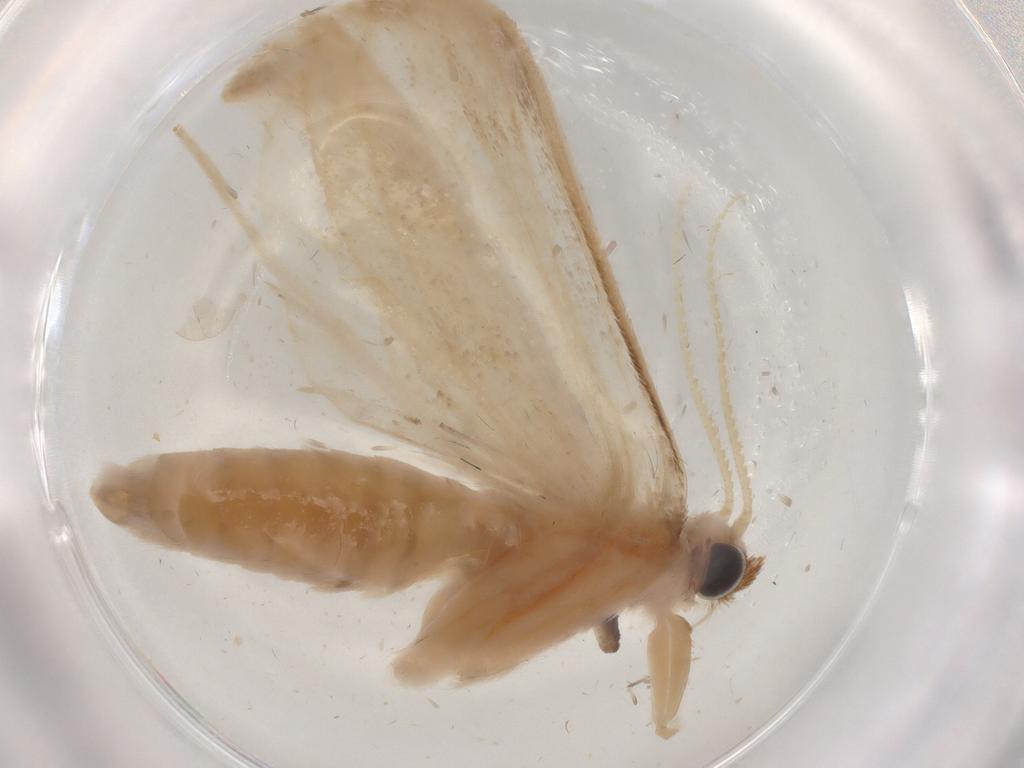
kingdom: Animalia
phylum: Arthropoda
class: Insecta
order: Lepidoptera
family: Crambidae
